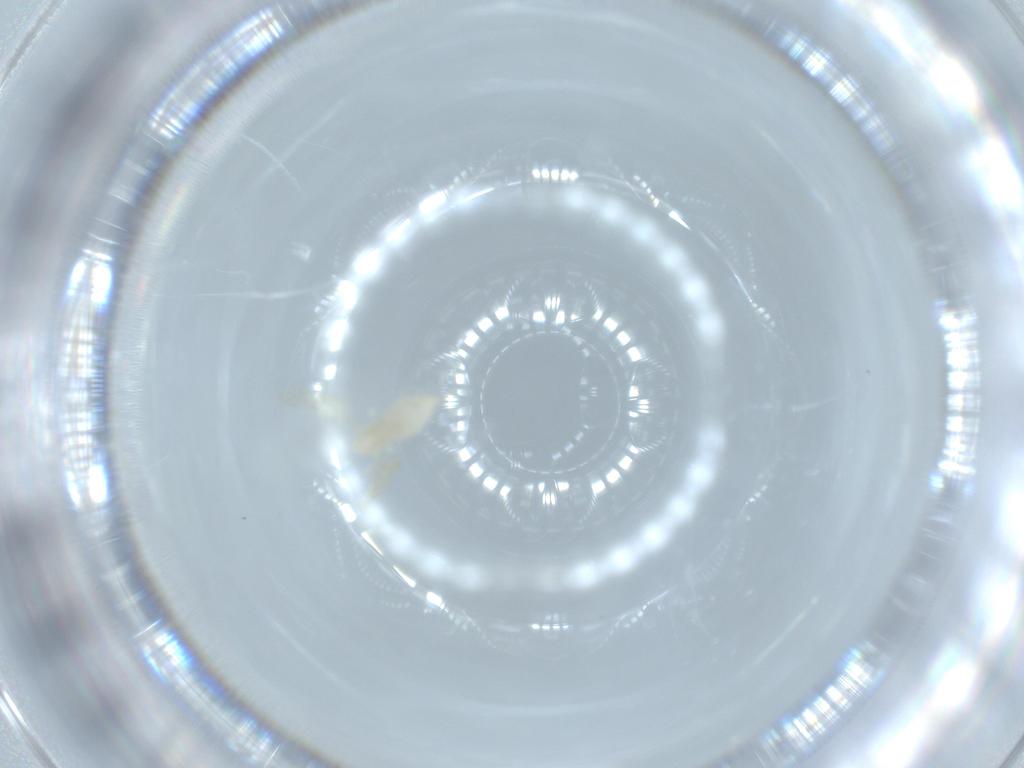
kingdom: Animalia
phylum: Arthropoda
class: Insecta
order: Diptera
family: Cecidomyiidae
